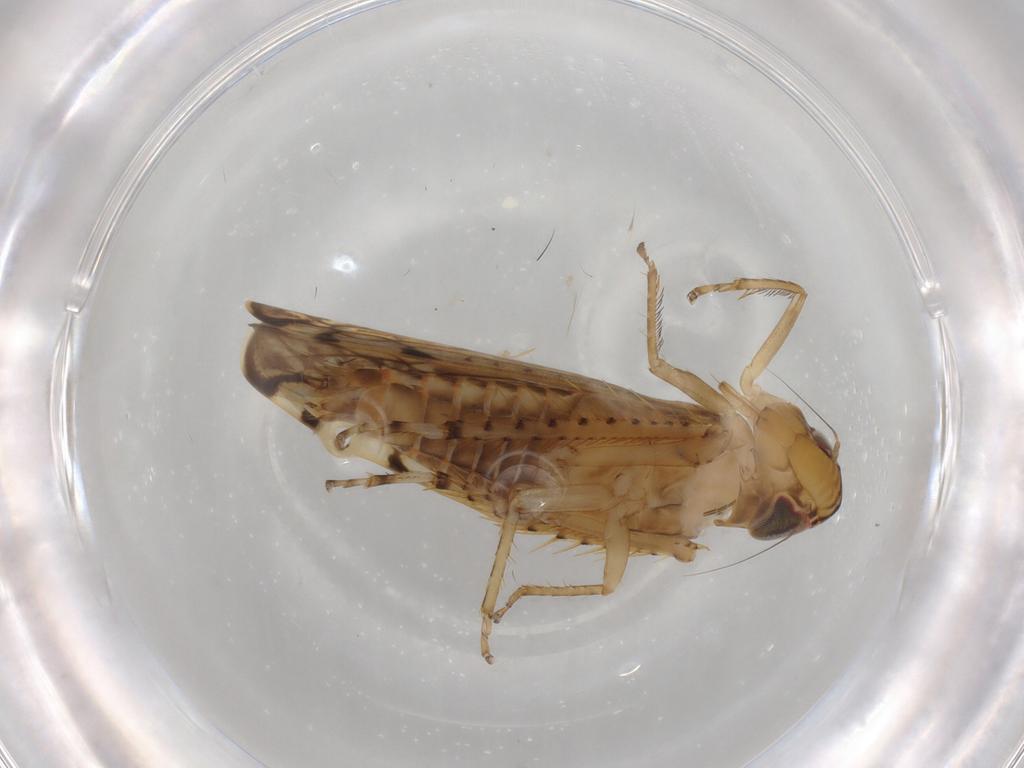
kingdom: Animalia
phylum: Arthropoda
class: Insecta
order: Hemiptera
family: Cicadellidae
